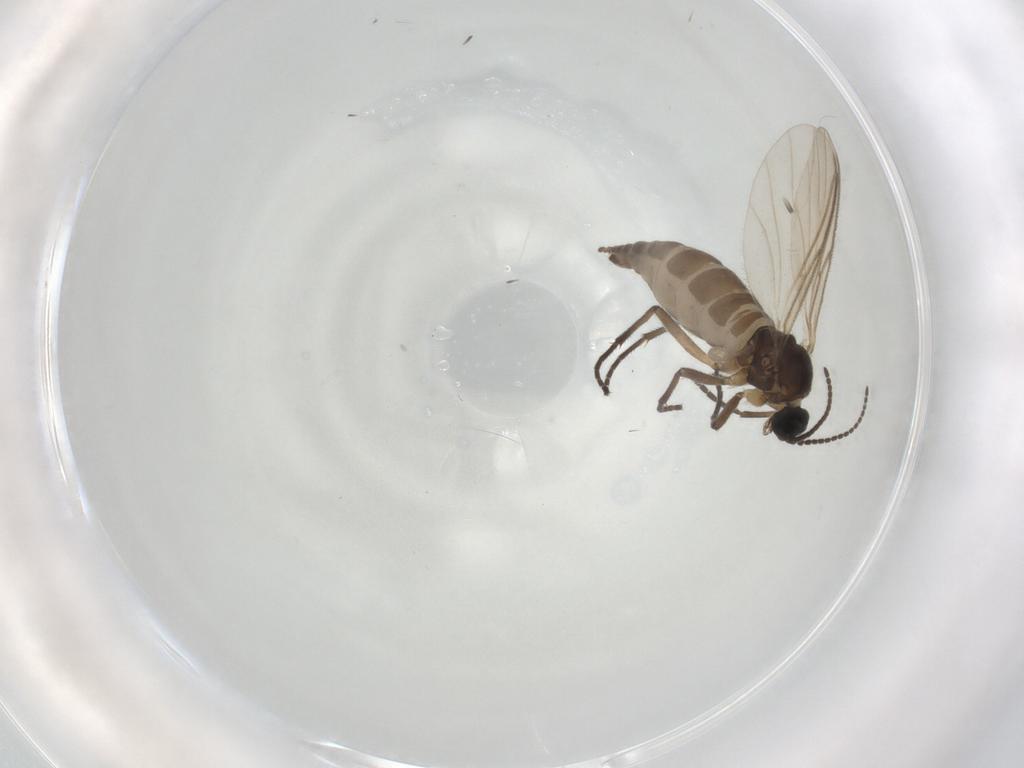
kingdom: Animalia
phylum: Arthropoda
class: Insecta
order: Diptera
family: Sciaridae
